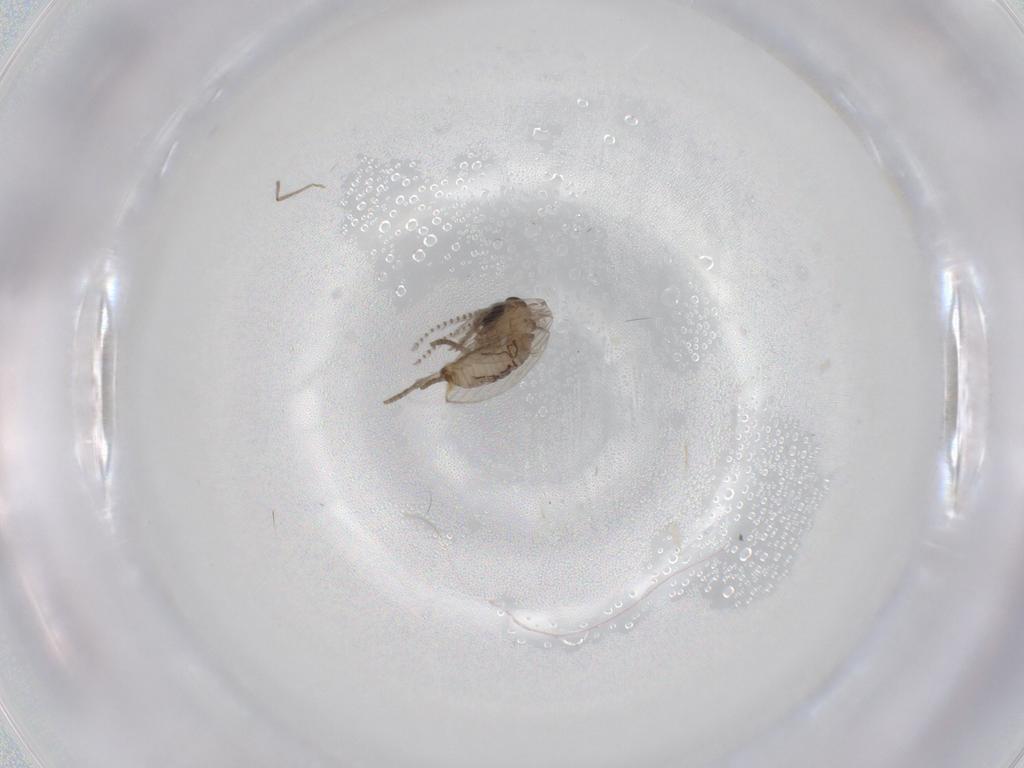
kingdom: Animalia
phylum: Arthropoda
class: Insecta
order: Diptera
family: Psychodidae
